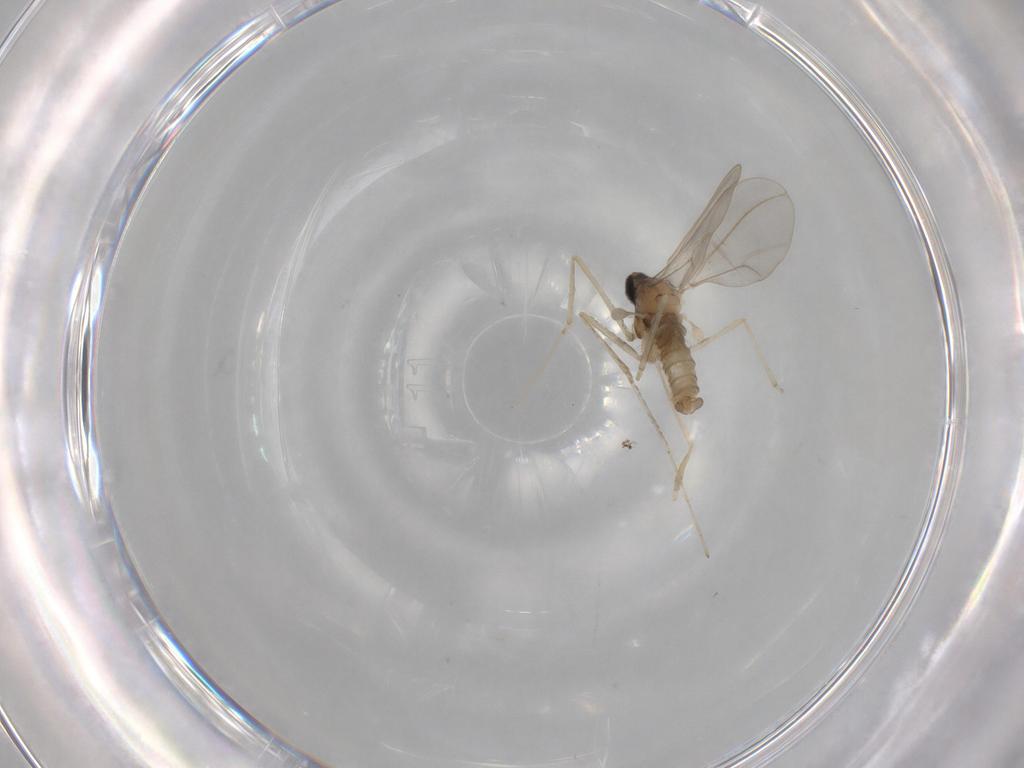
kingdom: Animalia
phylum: Arthropoda
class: Insecta
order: Diptera
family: Cecidomyiidae
